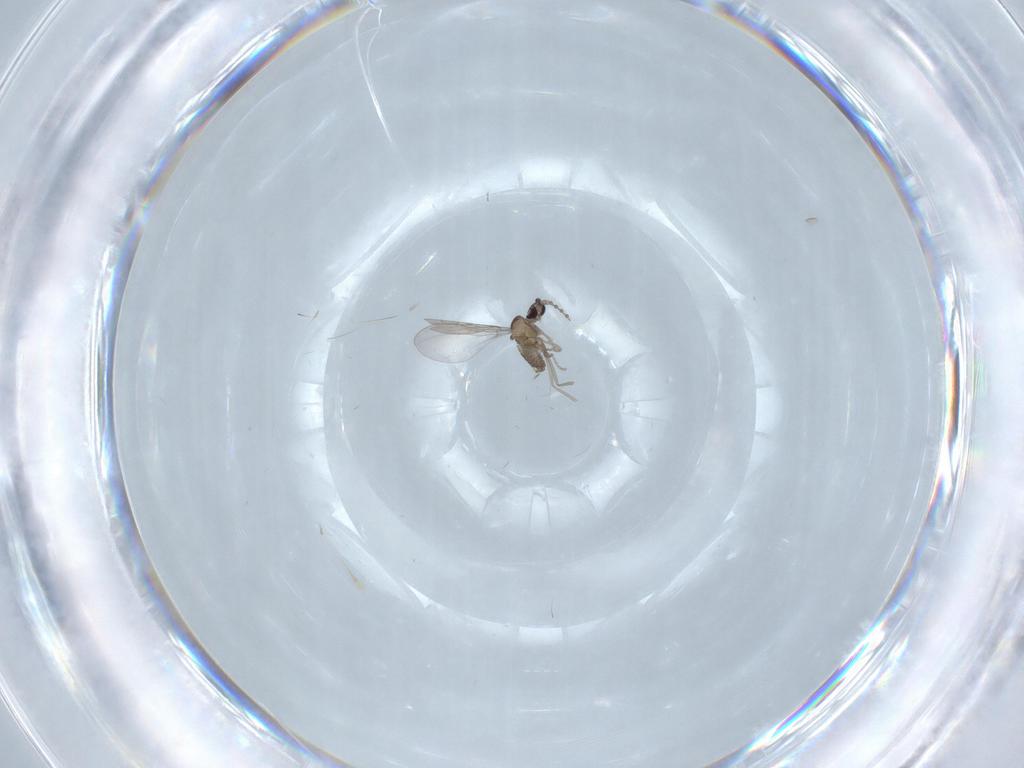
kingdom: Animalia
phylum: Arthropoda
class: Insecta
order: Diptera
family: Cecidomyiidae
